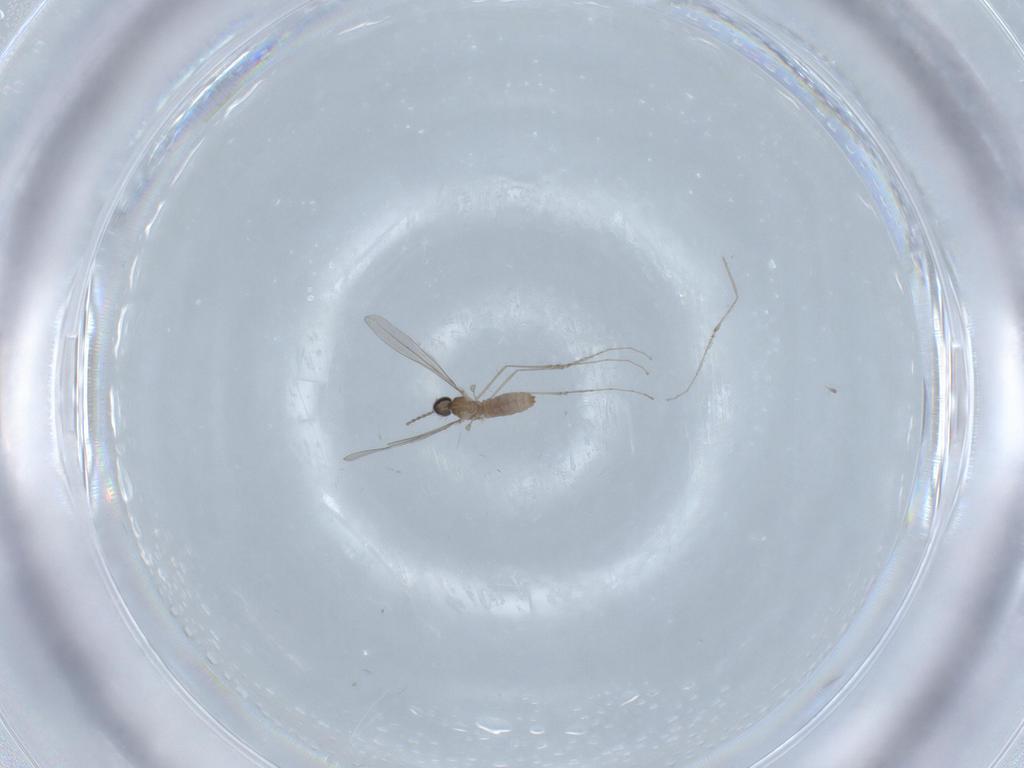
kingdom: Animalia
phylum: Arthropoda
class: Insecta
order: Diptera
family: Cecidomyiidae
